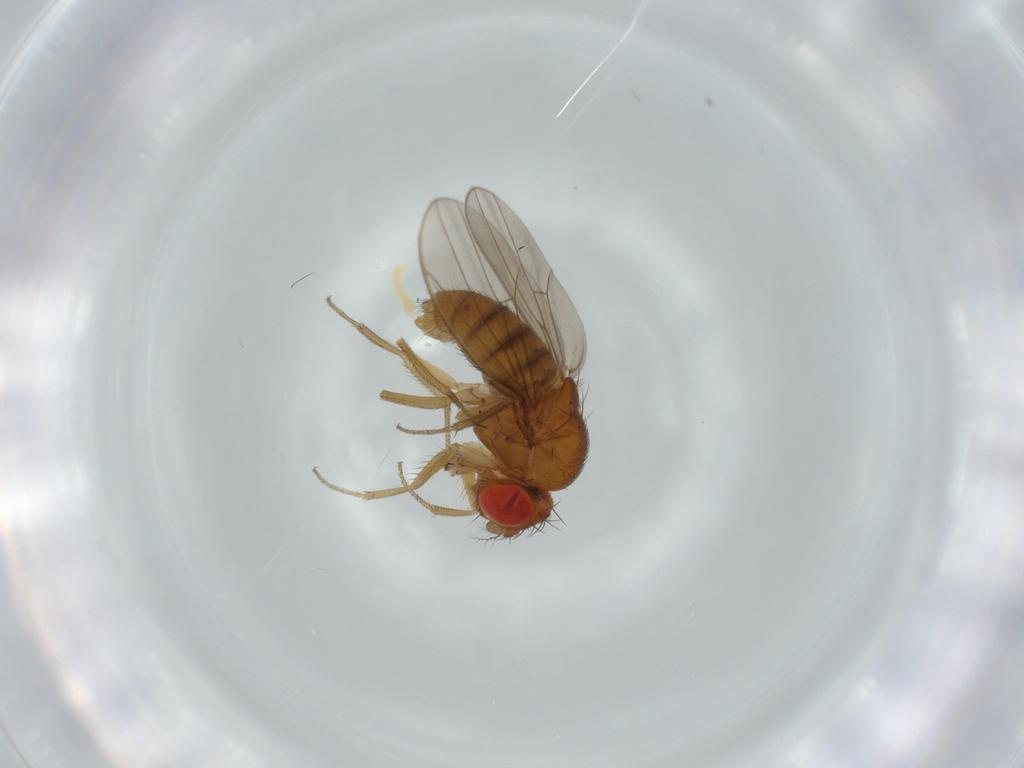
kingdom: Animalia
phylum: Arthropoda
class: Insecta
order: Diptera
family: Drosophilidae
